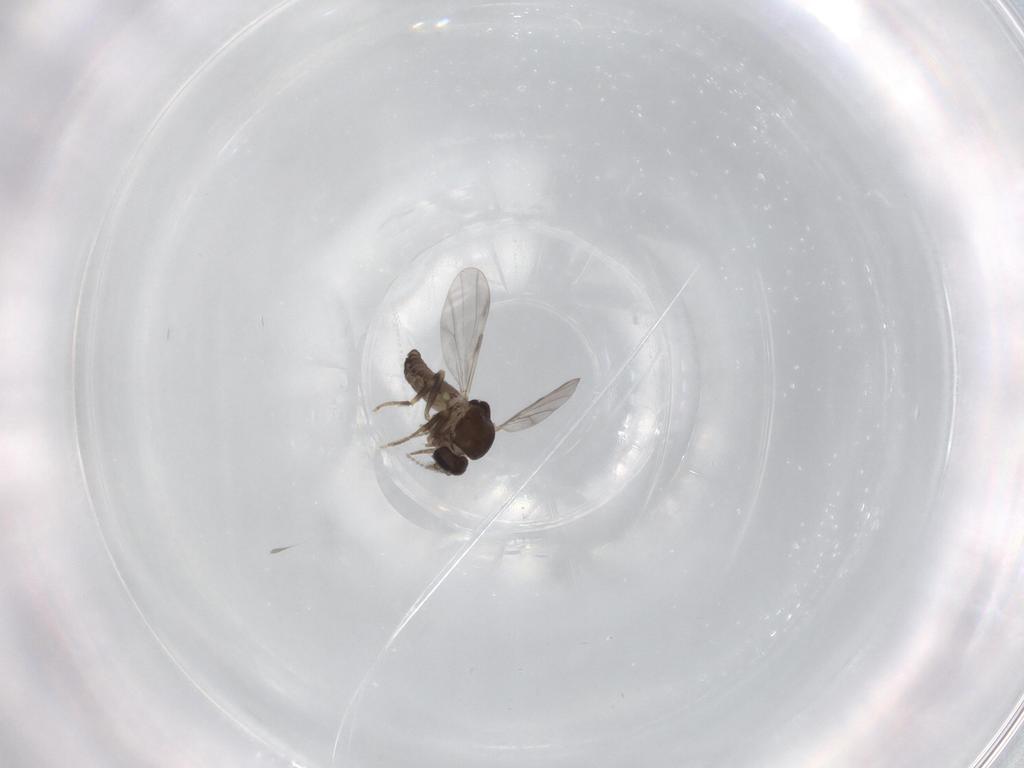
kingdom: Animalia
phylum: Arthropoda
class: Insecta
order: Diptera
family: Ceratopogonidae
